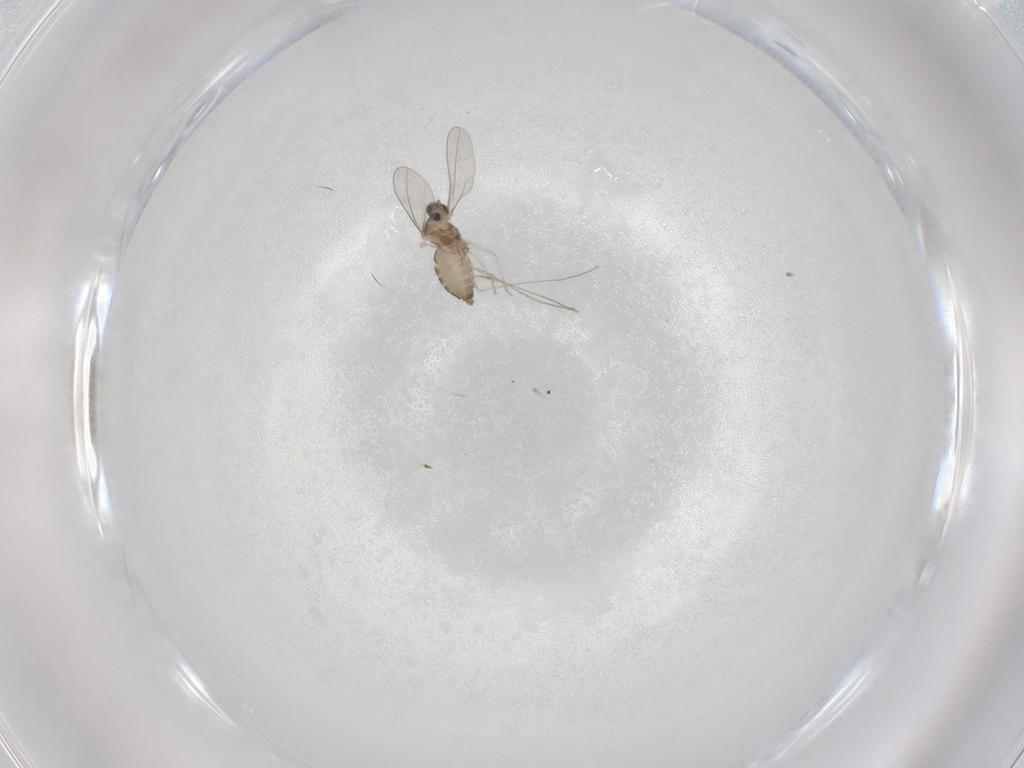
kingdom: Animalia
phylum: Arthropoda
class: Insecta
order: Diptera
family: Cecidomyiidae
